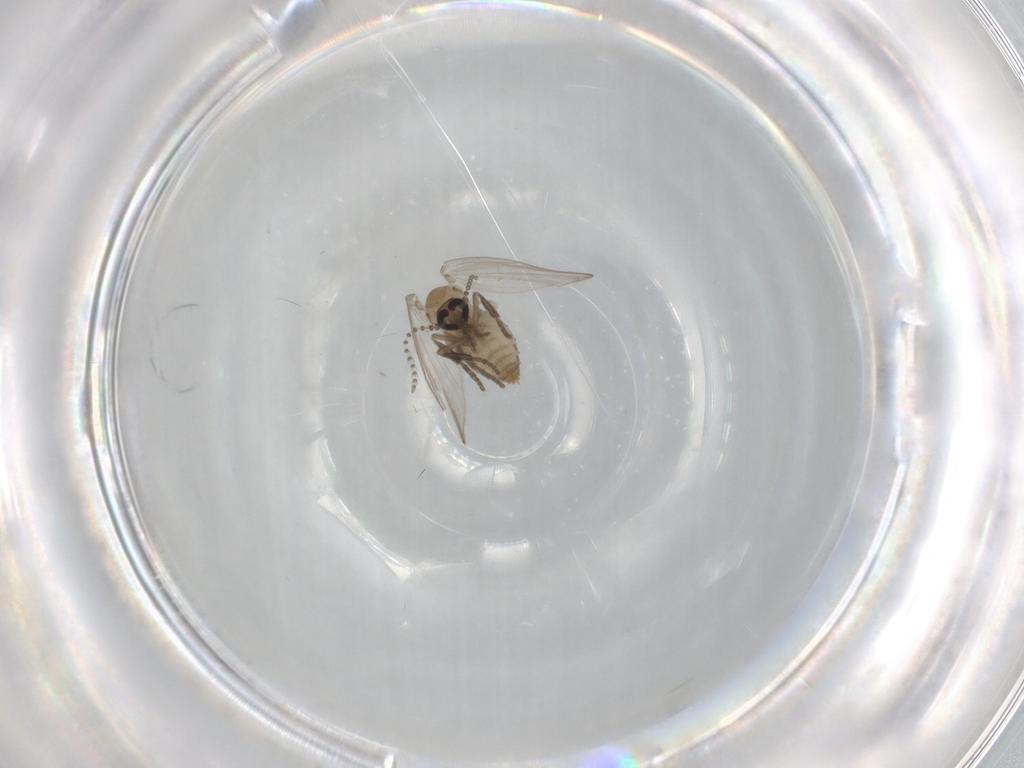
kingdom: Animalia
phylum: Arthropoda
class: Insecta
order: Diptera
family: Psychodidae
